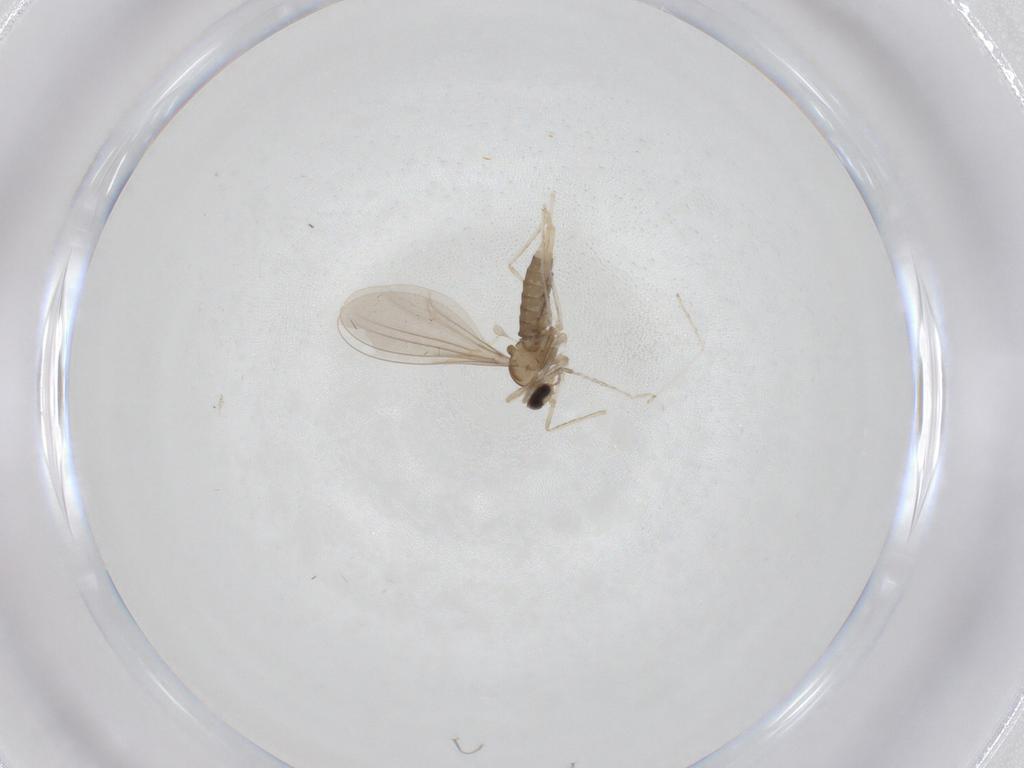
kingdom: Animalia
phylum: Arthropoda
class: Insecta
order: Diptera
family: Cecidomyiidae
